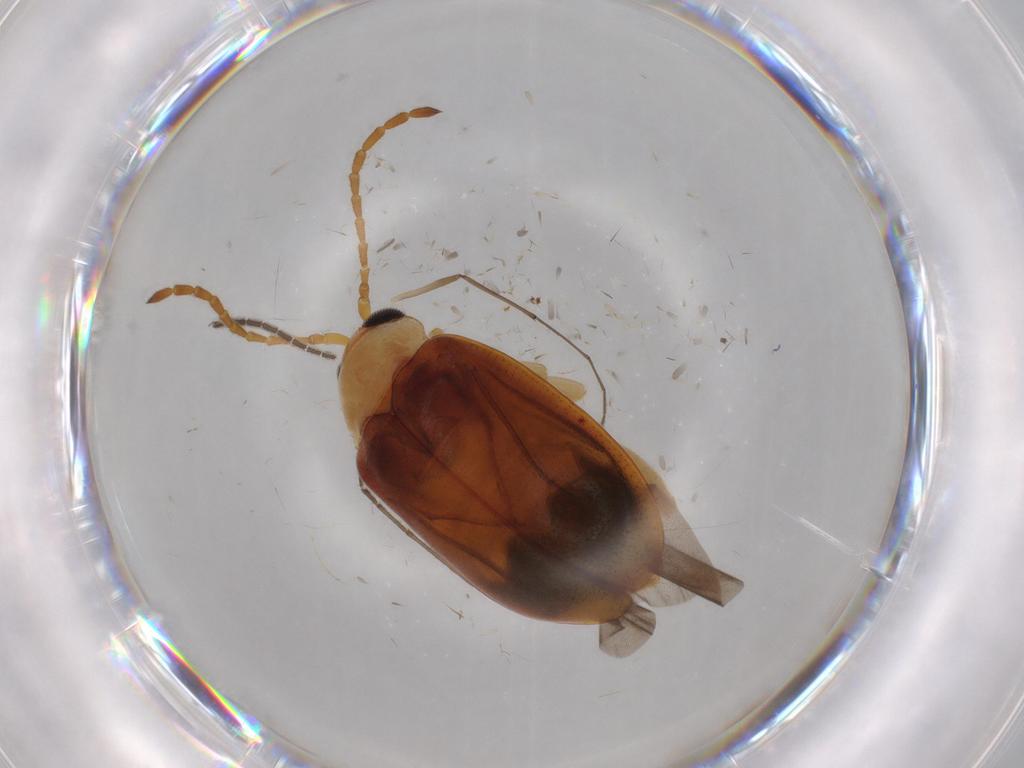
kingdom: Animalia
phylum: Arthropoda
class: Insecta
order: Coleoptera
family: Chrysomelidae
